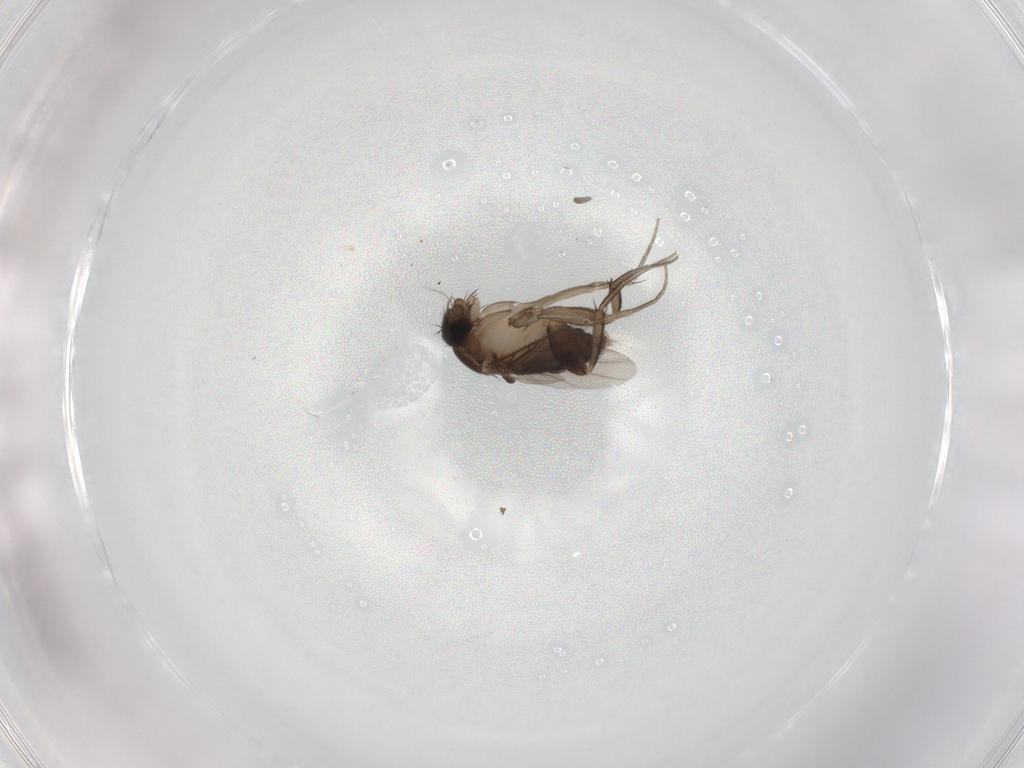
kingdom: Animalia
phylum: Arthropoda
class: Insecta
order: Diptera
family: Phoridae
